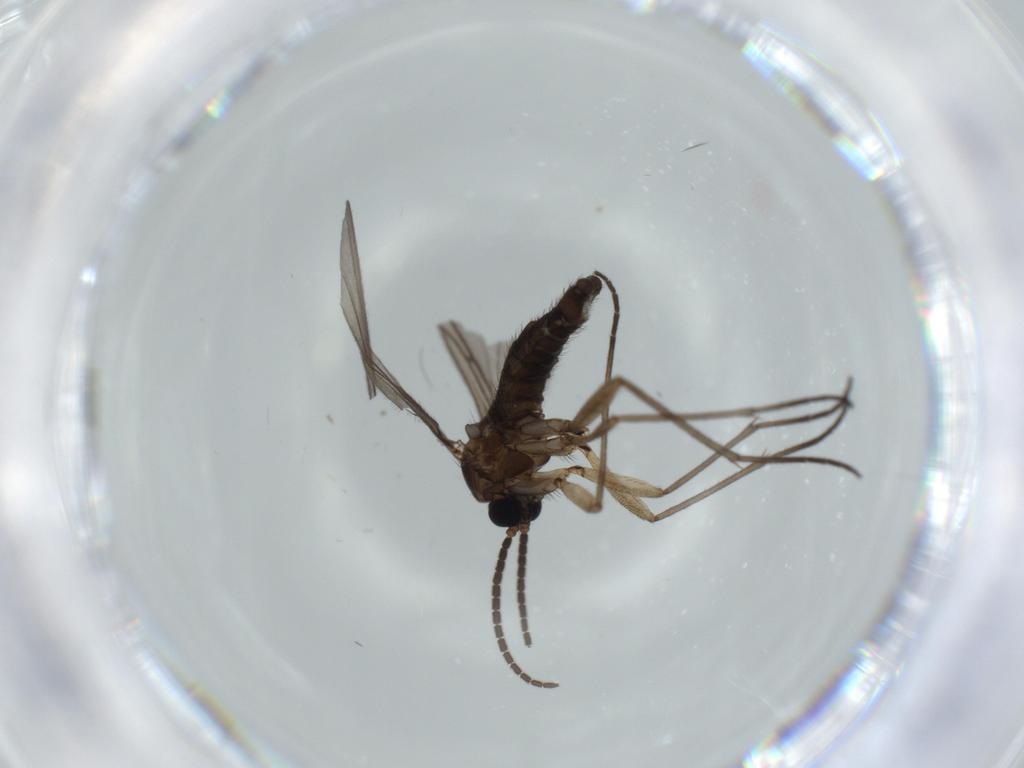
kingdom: Animalia
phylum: Arthropoda
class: Insecta
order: Diptera
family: Sciaridae
